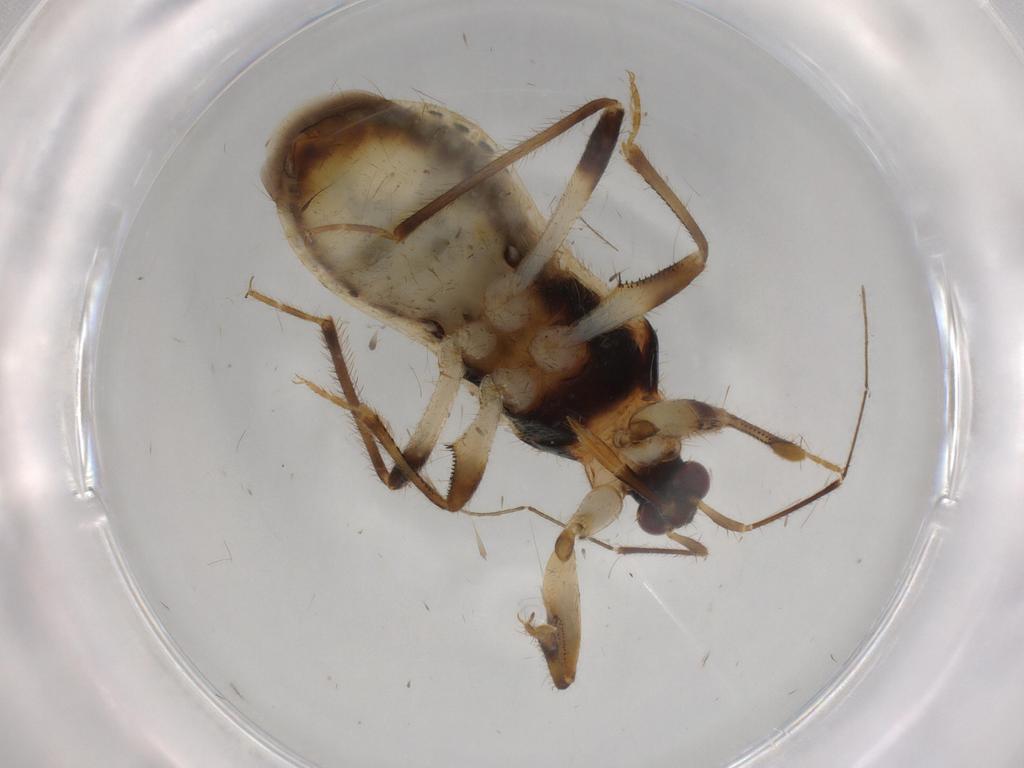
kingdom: Animalia
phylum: Arthropoda
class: Insecta
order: Hemiptera
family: Nabidae
